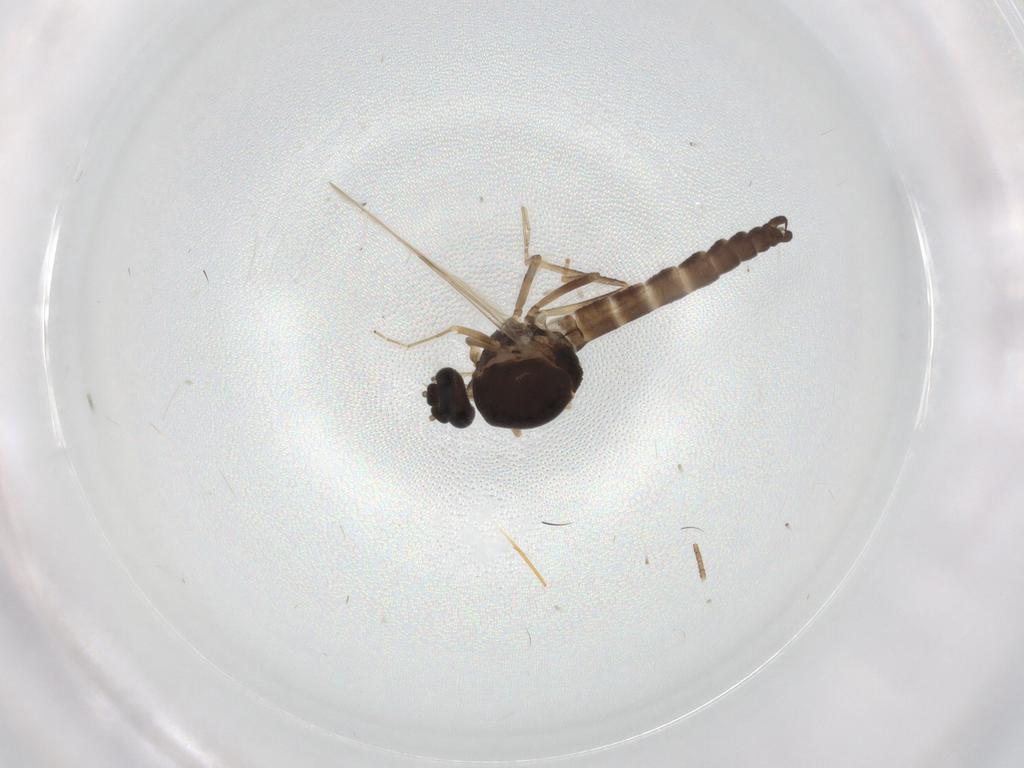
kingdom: Animalia
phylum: Arthropoda
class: Insecta
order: Diptera
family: Ceratopogonidae
